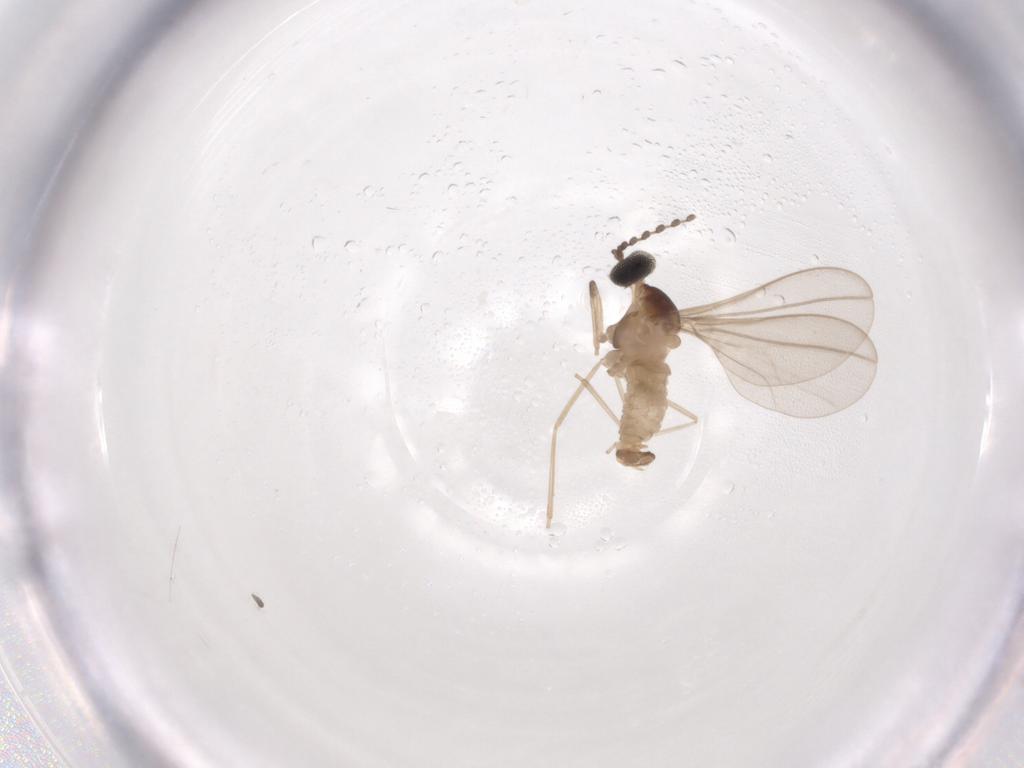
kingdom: Animalia
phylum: Arthropoda
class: Insecta
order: Diptera
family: Cecidomyiidae
